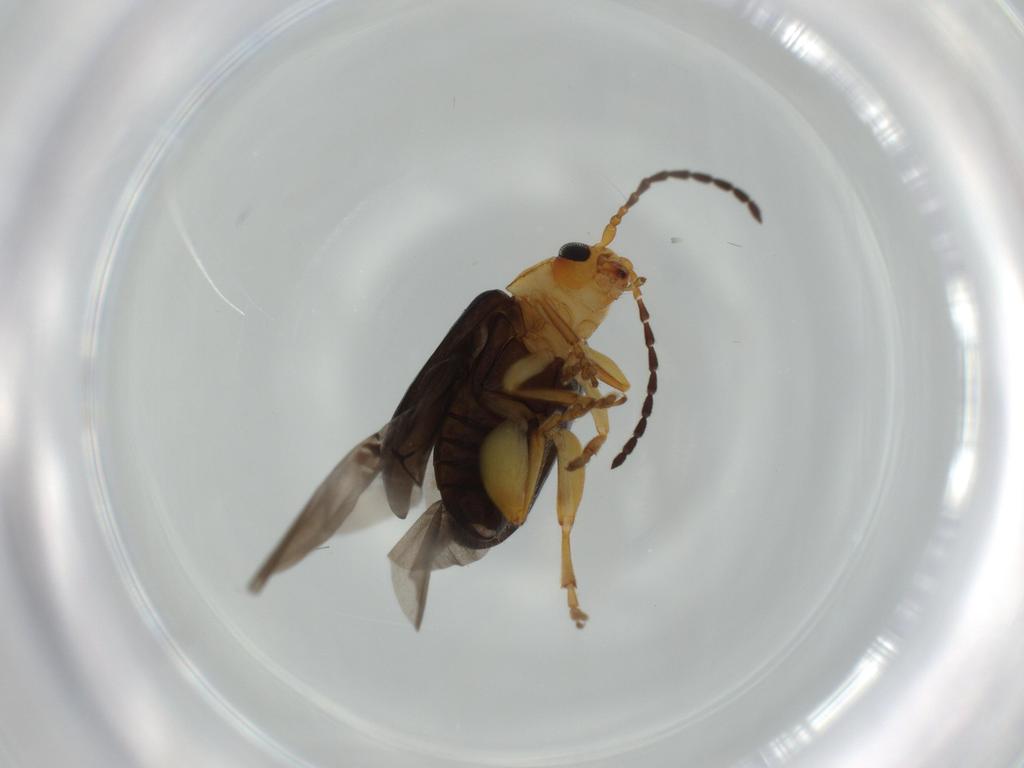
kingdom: Animalia
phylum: Arthropoda
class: Insecta
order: Coleoptera
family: Chrysomelidae
